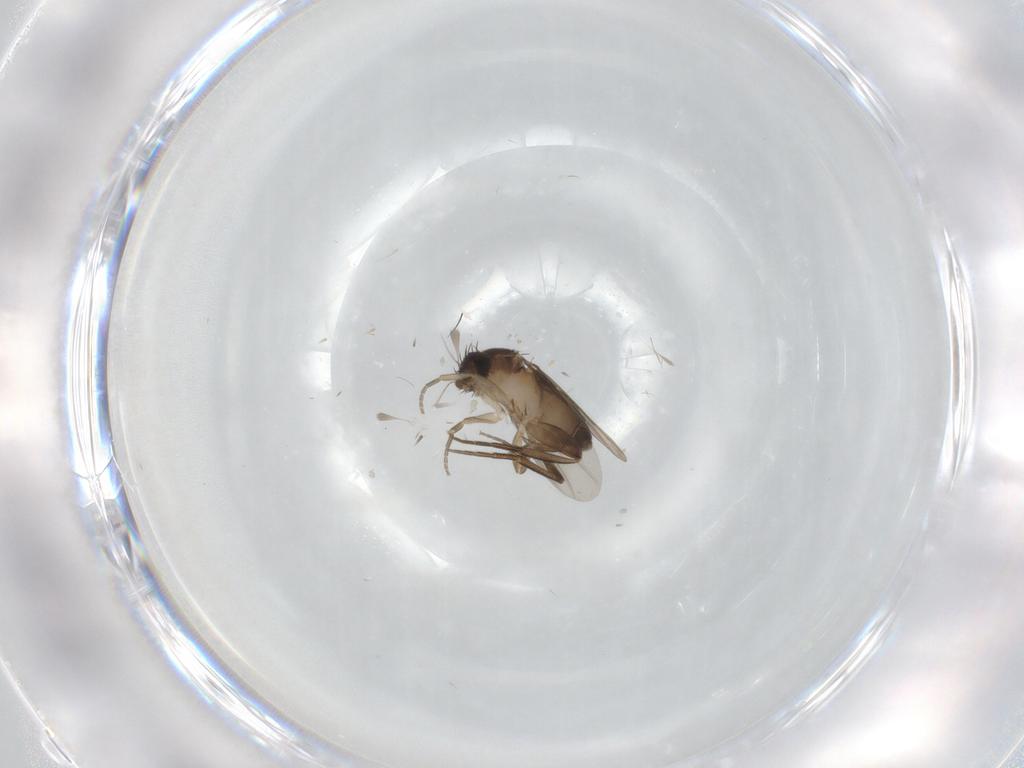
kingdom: Animalia
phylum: Arthropoda
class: Insecta
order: Diptera
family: Phoridae
